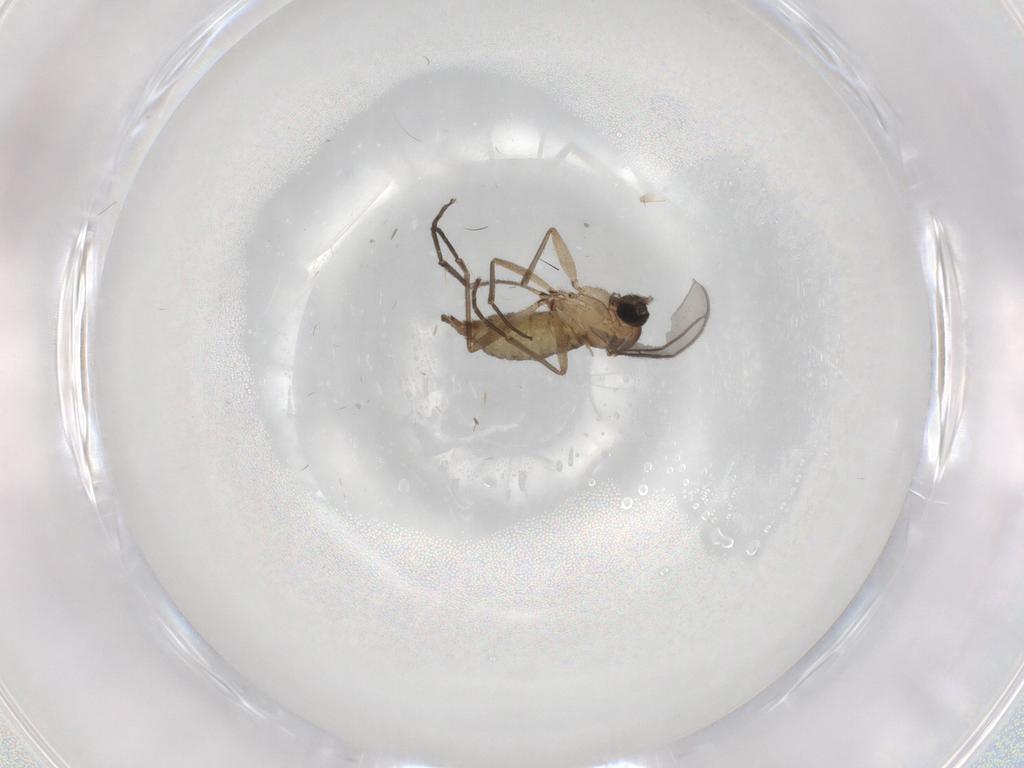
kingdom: Animalia
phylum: Arthropoda
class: Insecta
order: Diptera
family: Sciaridae
